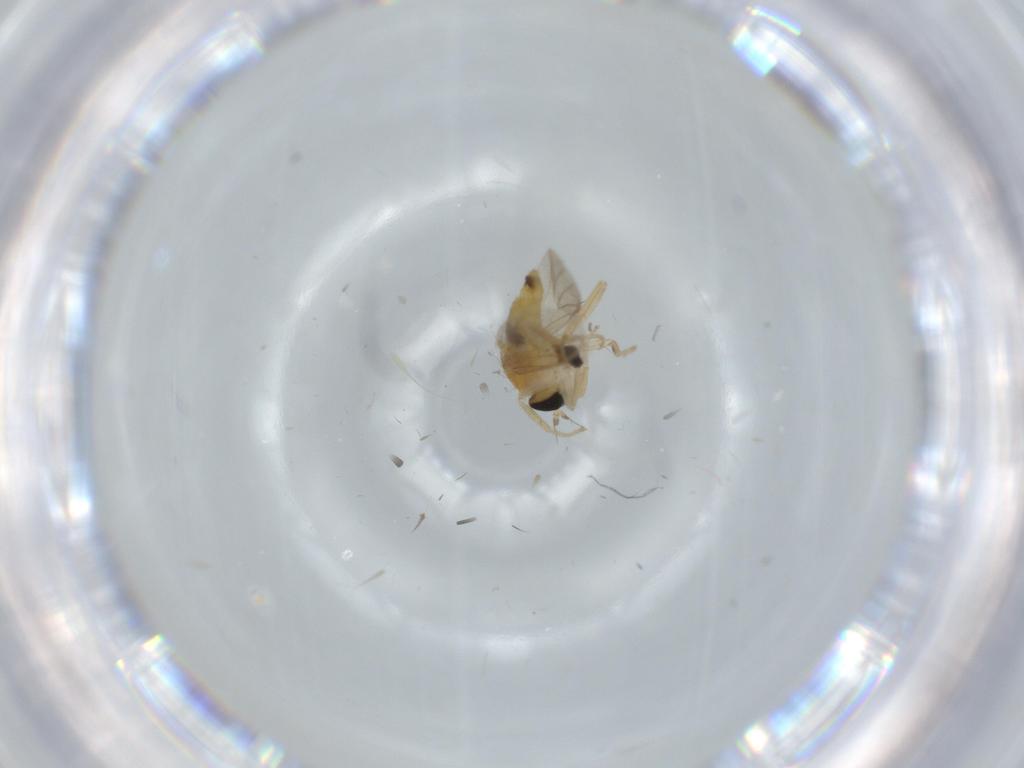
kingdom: Animalia
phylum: Arthropoda
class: Insecta
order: Diptera
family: Hybotidae
